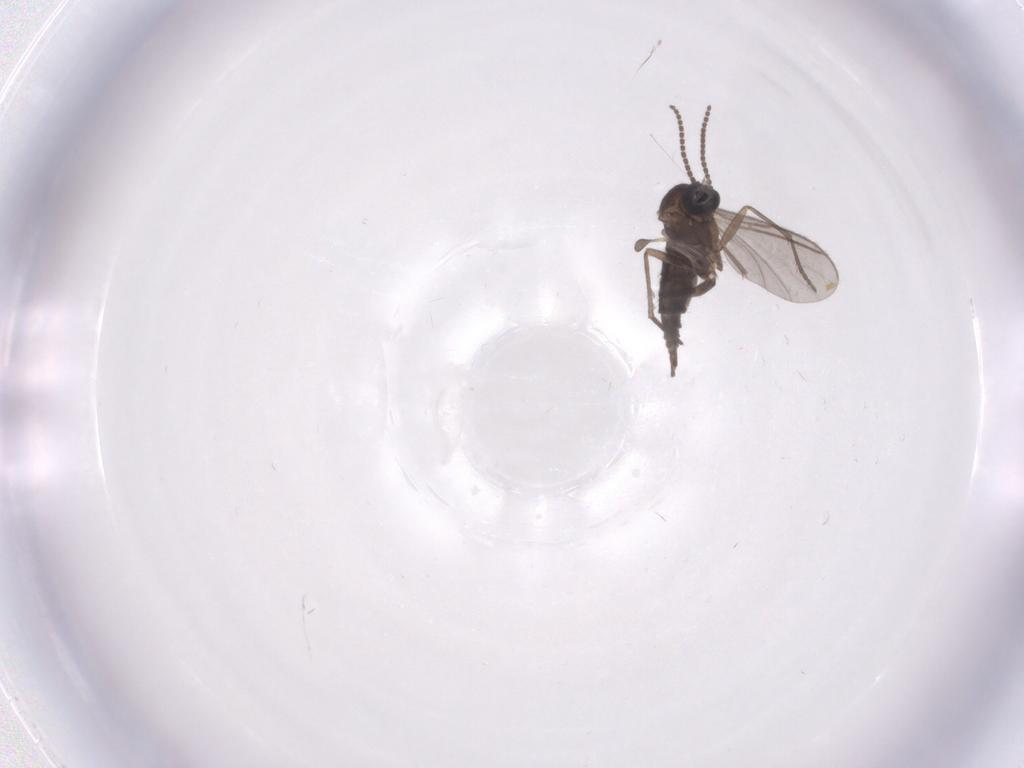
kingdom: Animalia
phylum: Arthropoda
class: Insecta
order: Diptera
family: Sciaridae
